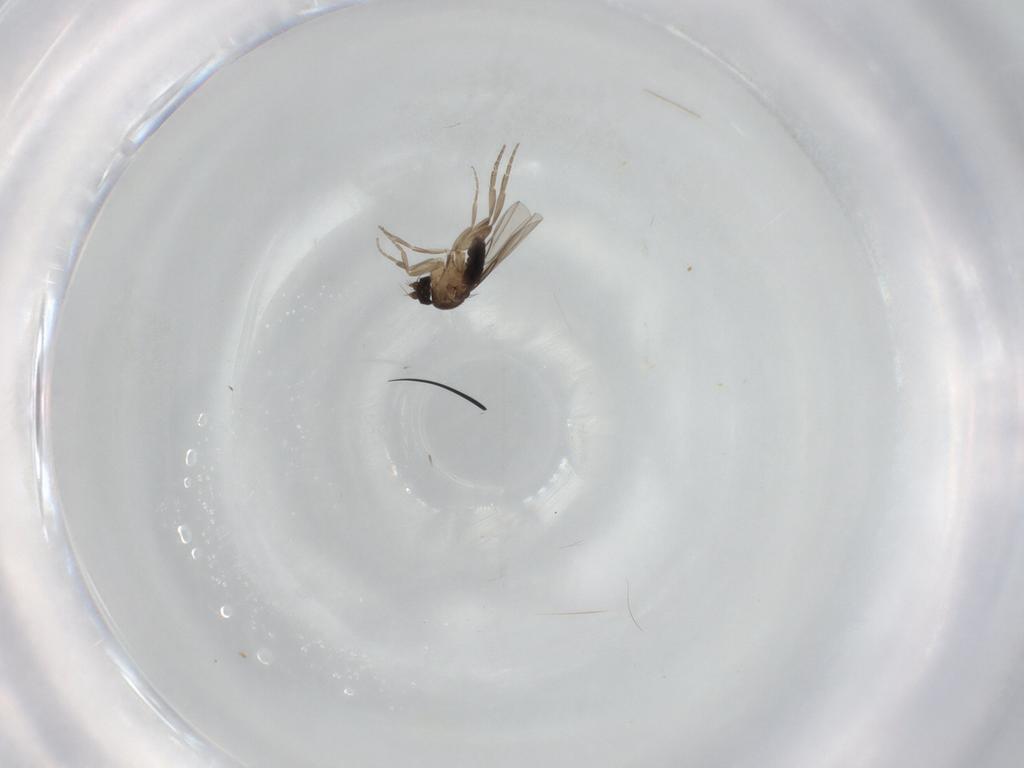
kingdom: Animalia
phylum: Arthropoda
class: Insecta
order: Diptera
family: Phoridae
